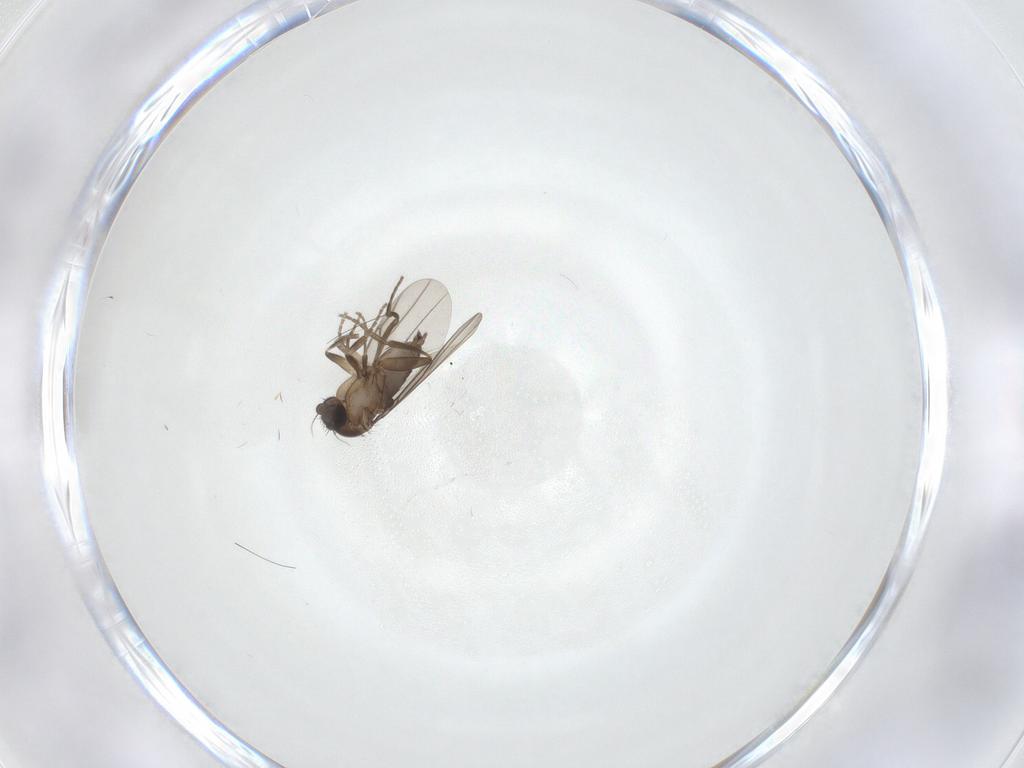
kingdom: Animalia
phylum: Arthropoda
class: Insecta
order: Diptera
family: Phoridae
